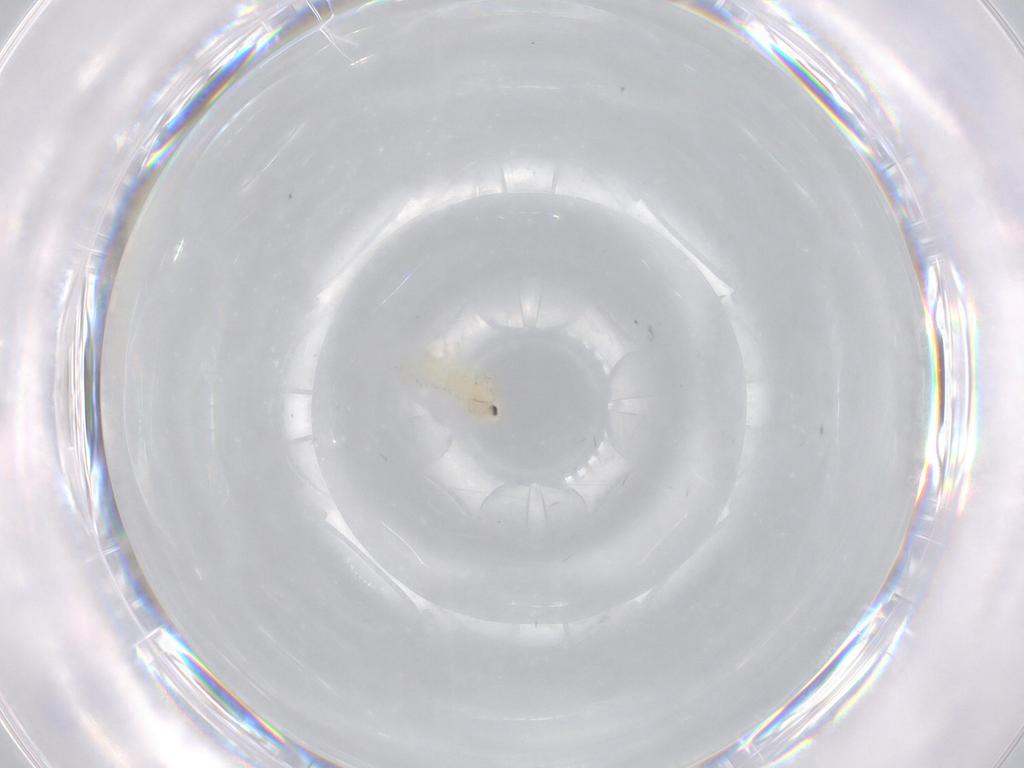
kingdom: Animalia
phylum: Arthropoda
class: Insecta
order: Hemiptera
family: Aleyrodidae
